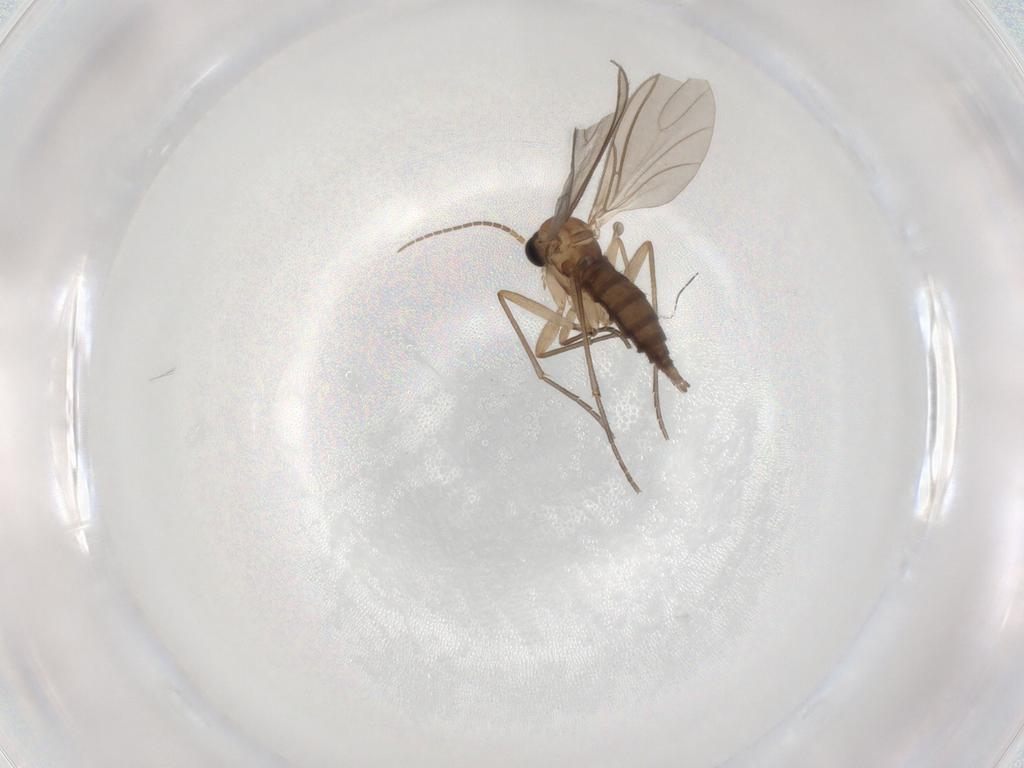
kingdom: Animalia
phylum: Arthropoda
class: Insecta
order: Diptera
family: Sciaridae
